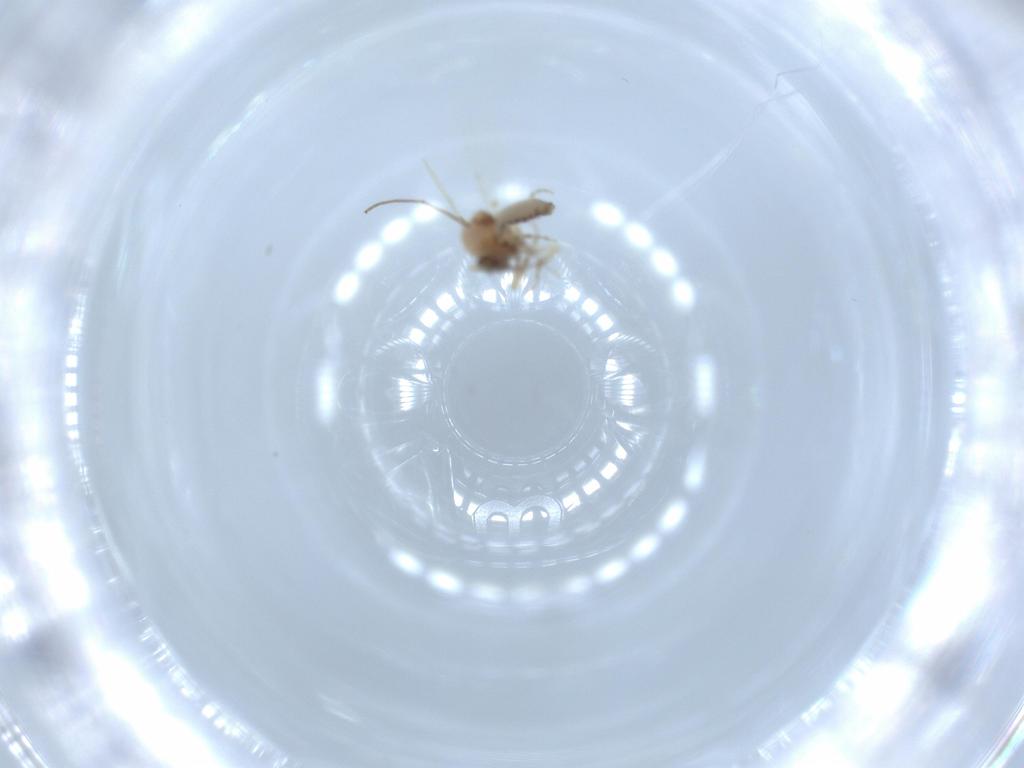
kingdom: Animalia
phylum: Arthropoda
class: Insecta
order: Diptera
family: Ceratopogonidae
